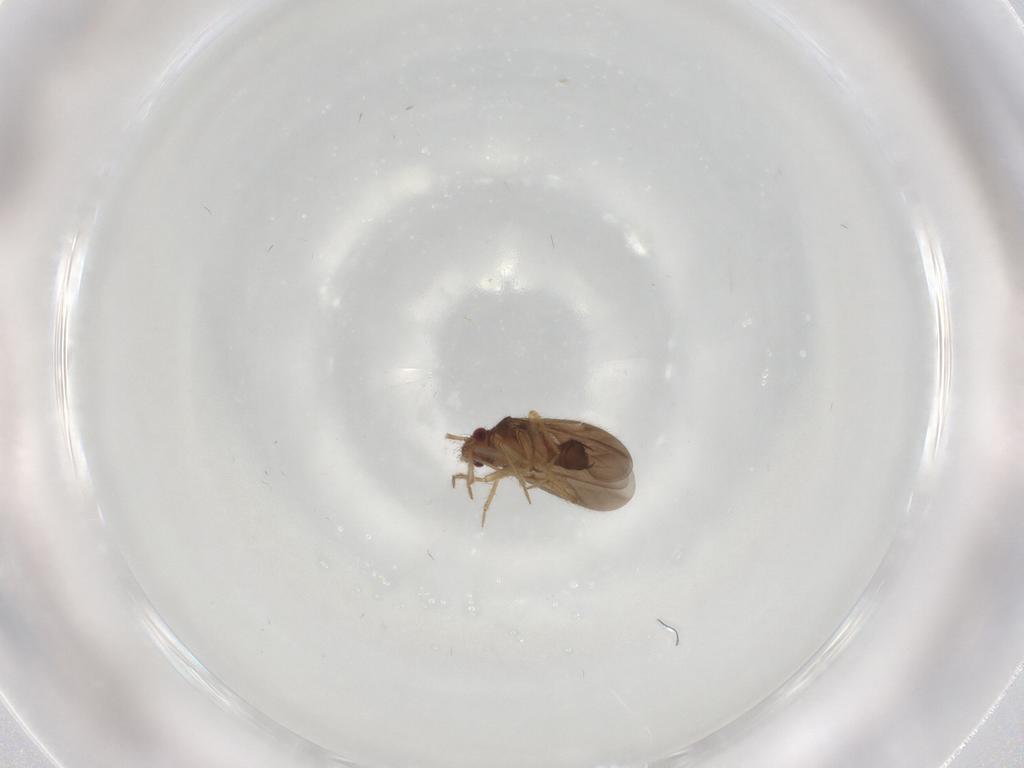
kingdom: Animalia
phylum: Arthropoda
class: Insecta
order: Hemiptera
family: Ceratocombidae
